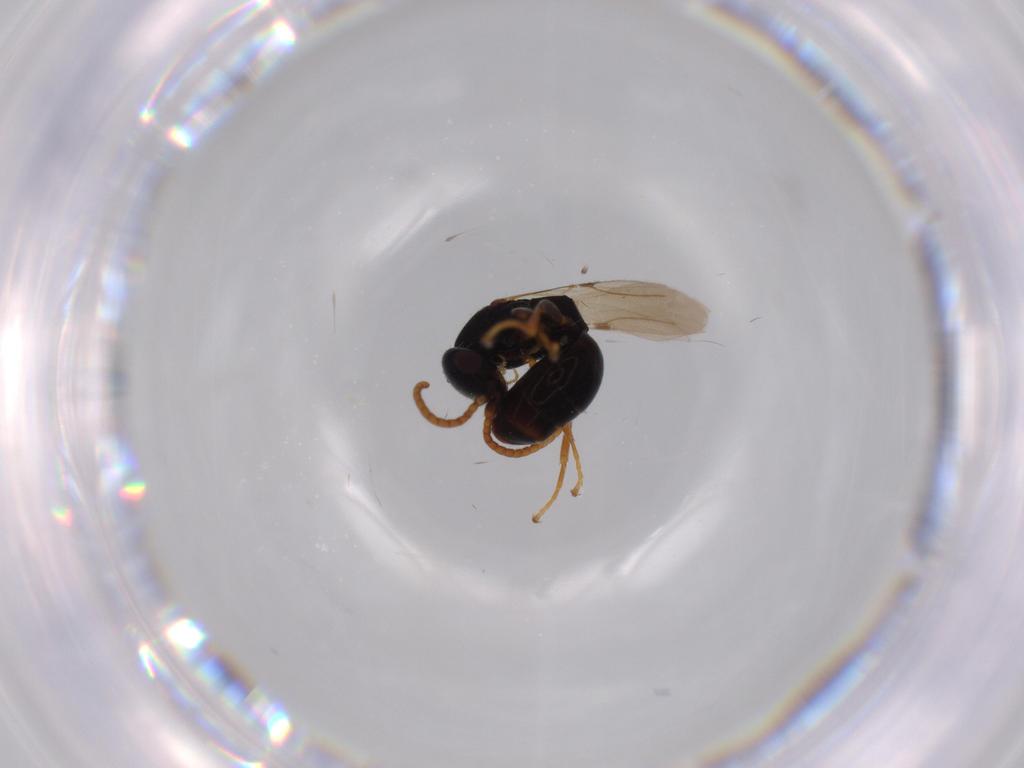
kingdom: Animalia
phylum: Arthropoda
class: Insecta
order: Hymenoptera
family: Bethylidae
